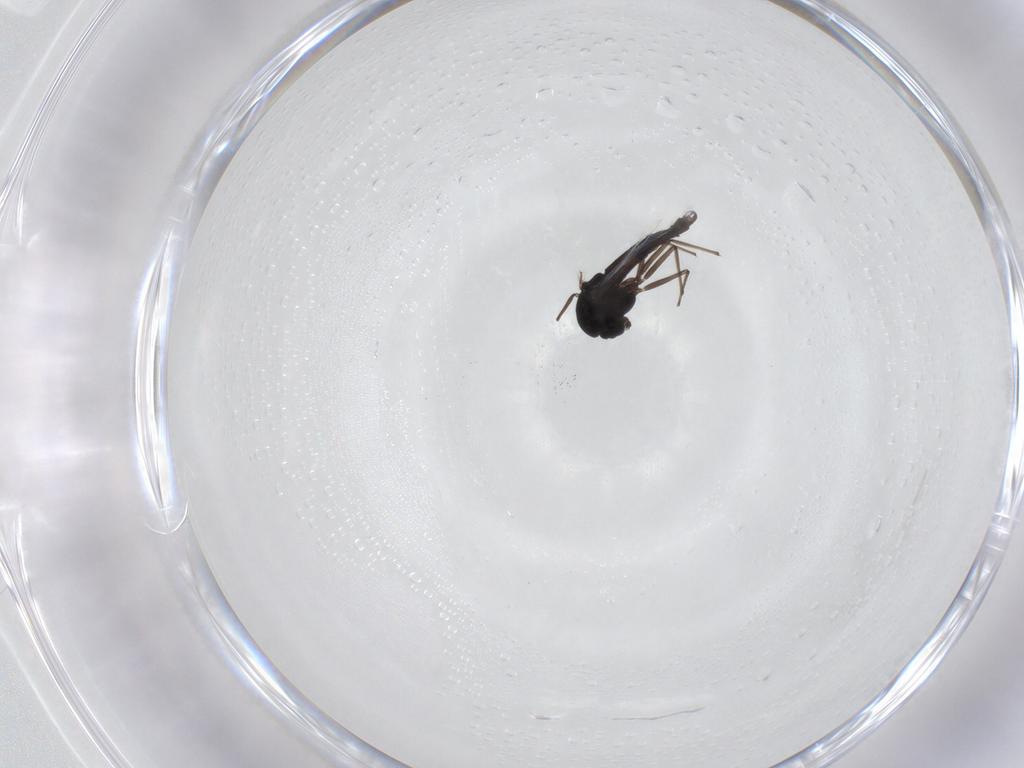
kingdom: Animalia
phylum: Arthropoda
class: Insecta
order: Diptera
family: Chironomidae
